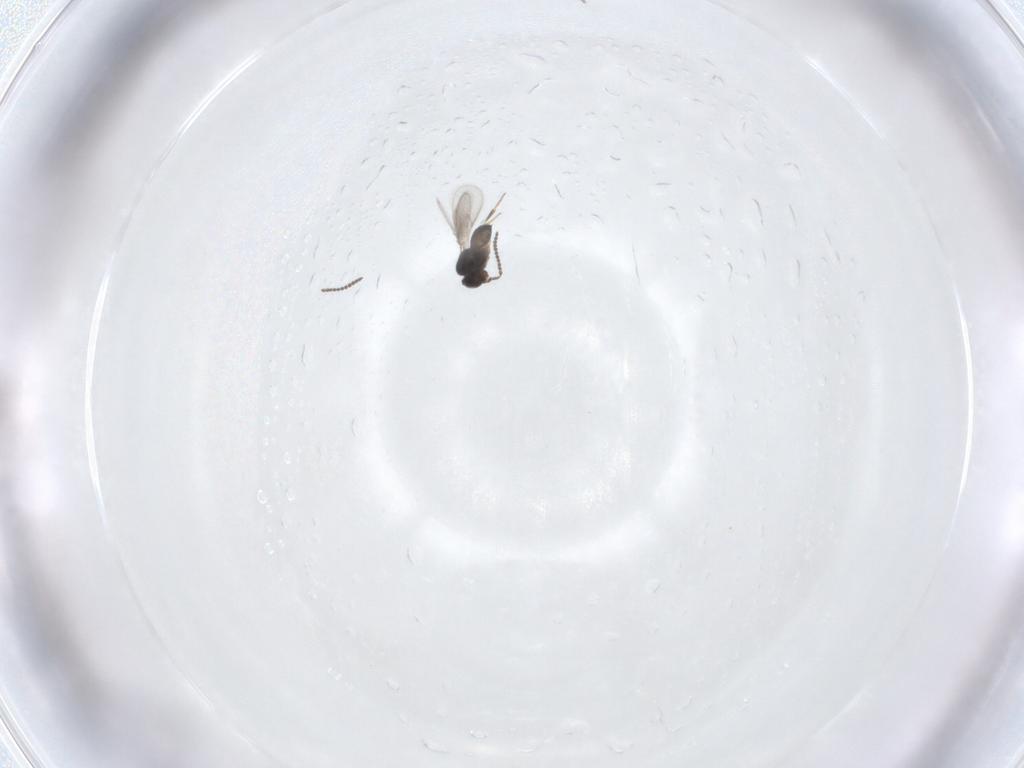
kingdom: Animalia
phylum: Arthropoda
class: Insecta
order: Hymenoptera
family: Scelionidae
